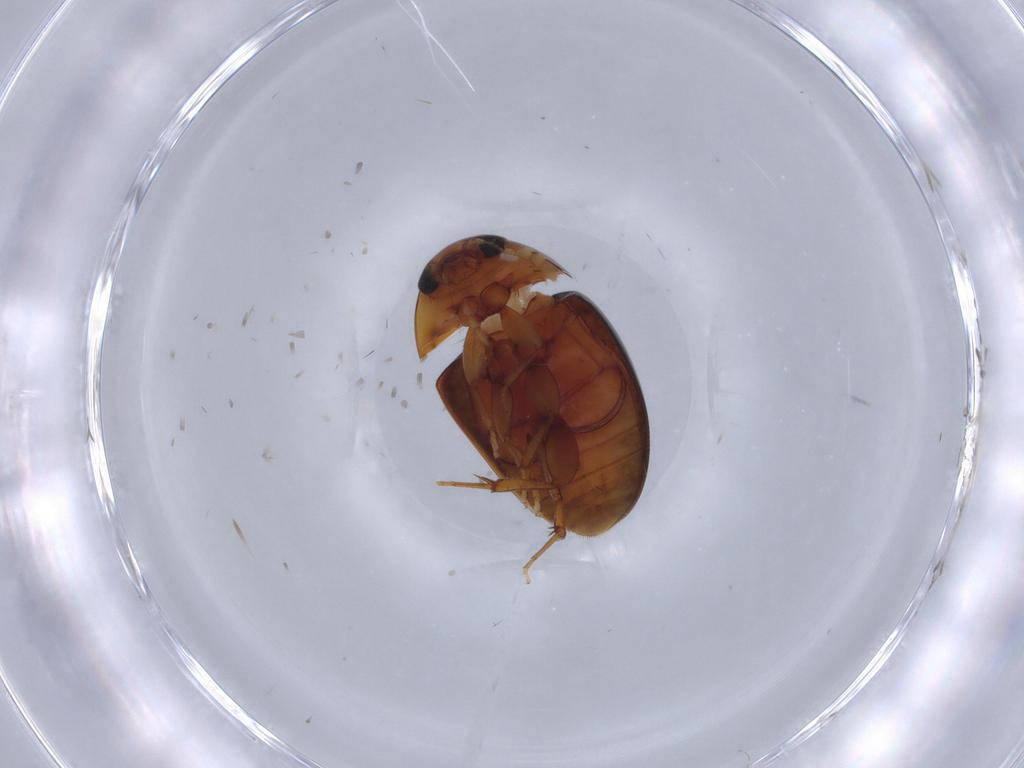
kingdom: Animalia
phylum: Arthropoda
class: Insecta
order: Coleoptera
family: Phalacridae
